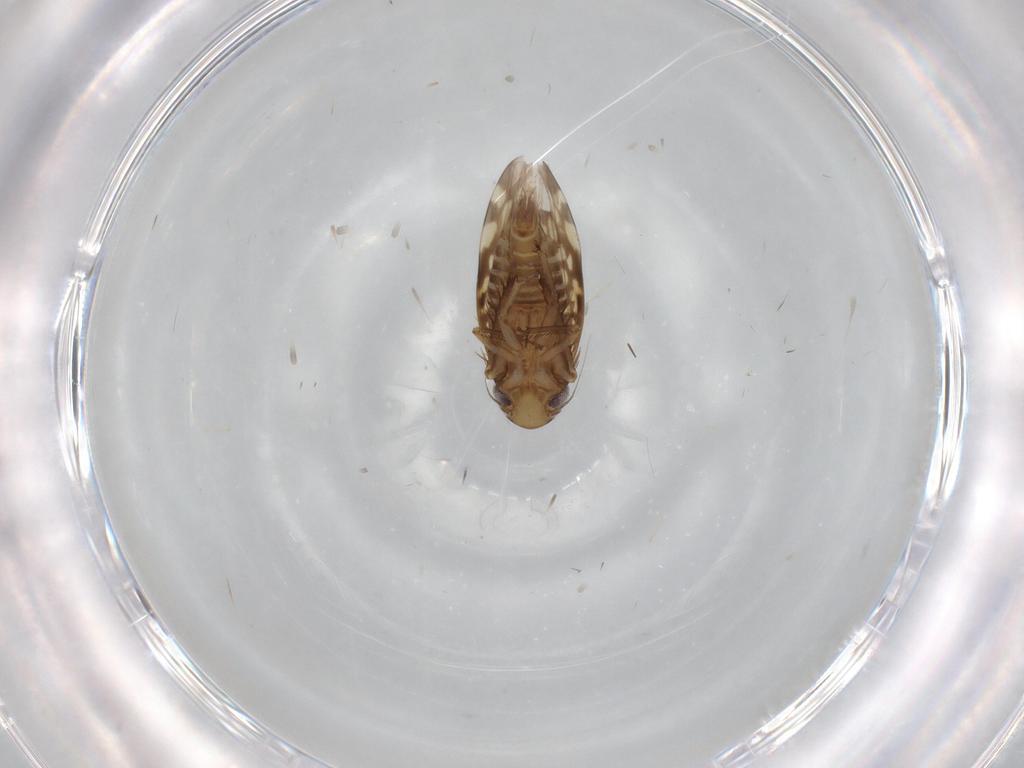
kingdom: Animalia
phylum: Arthropoda
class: Insecta
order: Hemiptera
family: Cicadellidae
